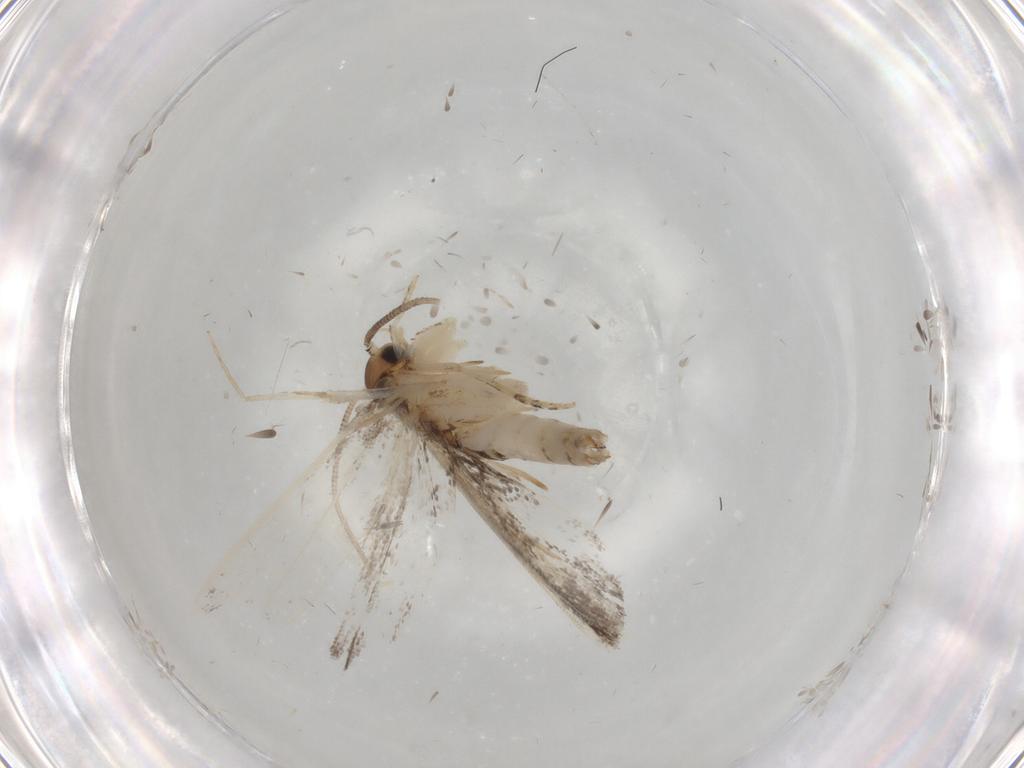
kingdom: Animalia
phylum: Arthropoda
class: Insecta
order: Lepidoptera
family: Dryadaulidae
